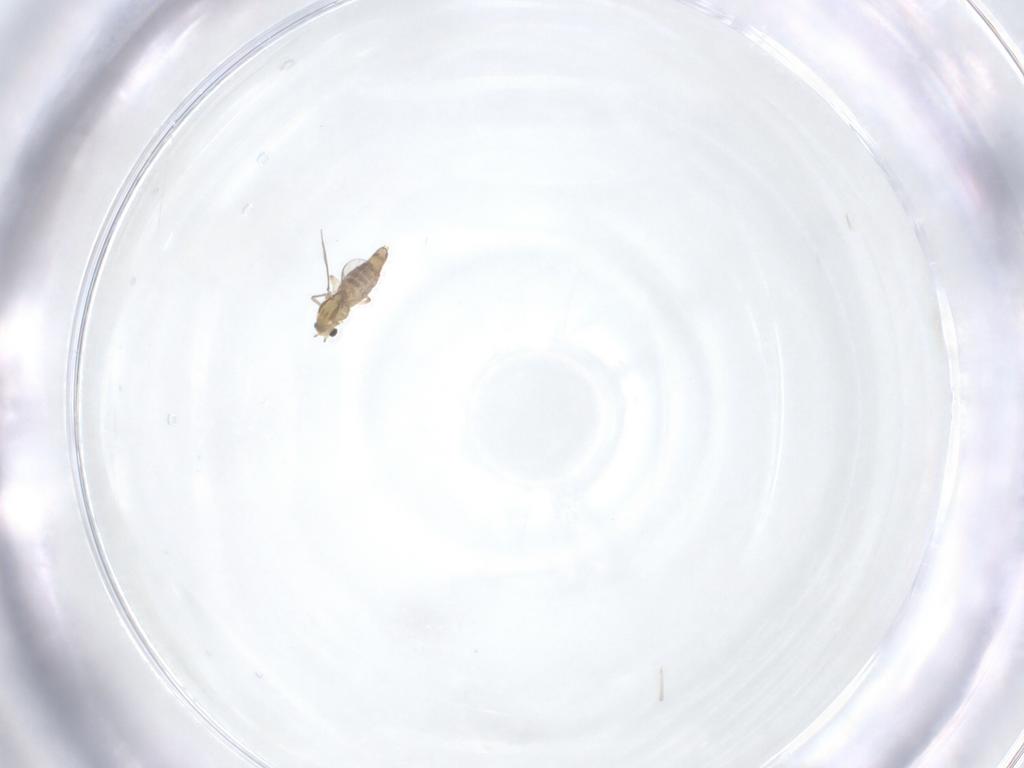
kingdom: Animalia
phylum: Arthropoda
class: Insecta
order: Diptera
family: Chironomidae
